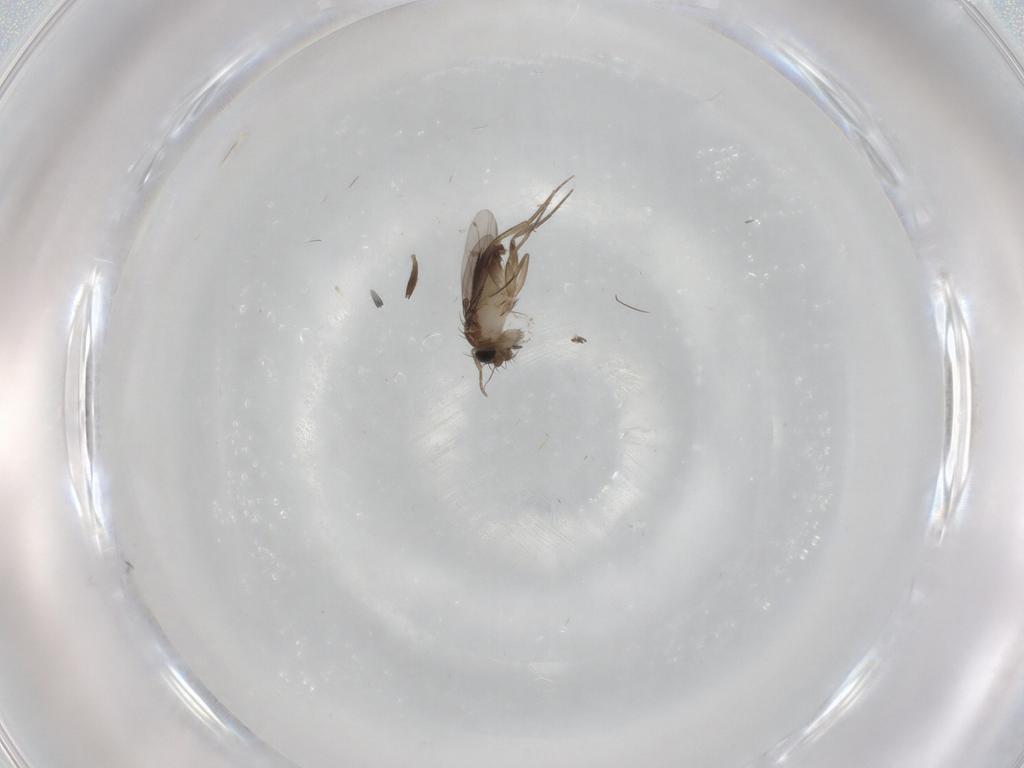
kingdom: Animalia
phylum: Arthropoda
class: Insecta
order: Diptera
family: Phoridae
